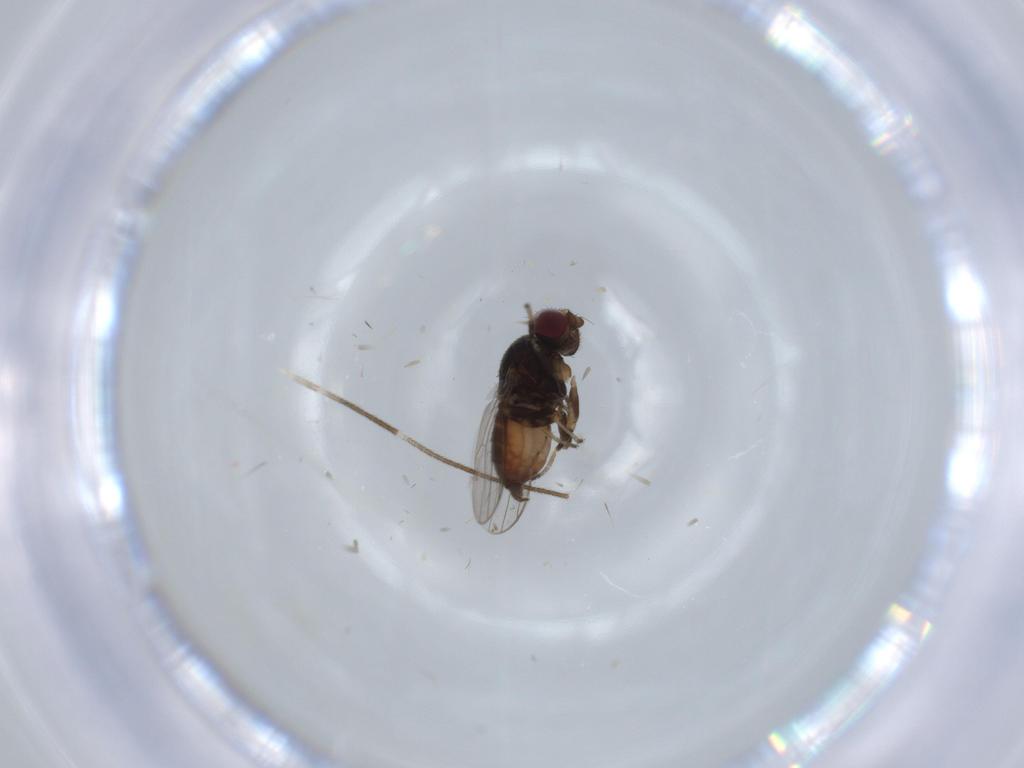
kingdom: Animalia
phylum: Arthropoda
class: Insecta
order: Diptera
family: Chloropidae
